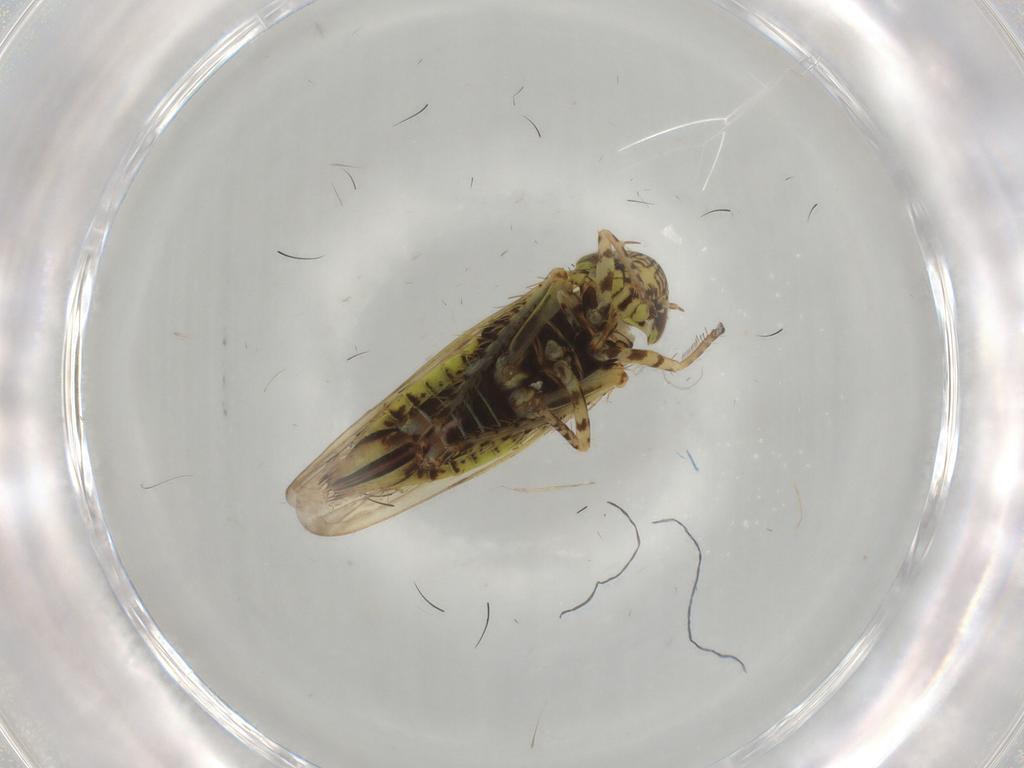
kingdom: Animalia
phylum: Arthropoda
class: Insecta
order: Hemiptera
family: Cicadellidae
